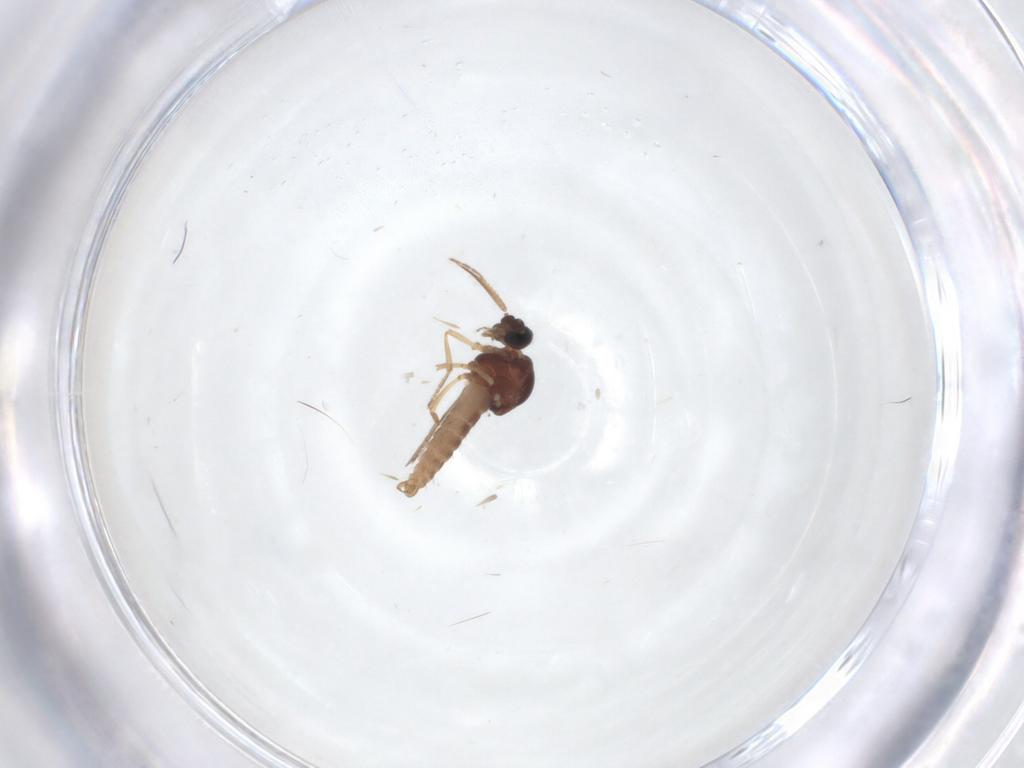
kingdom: Animalia
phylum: Arthropoda
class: Insecta
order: Diptera
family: Ceratopogonidae
